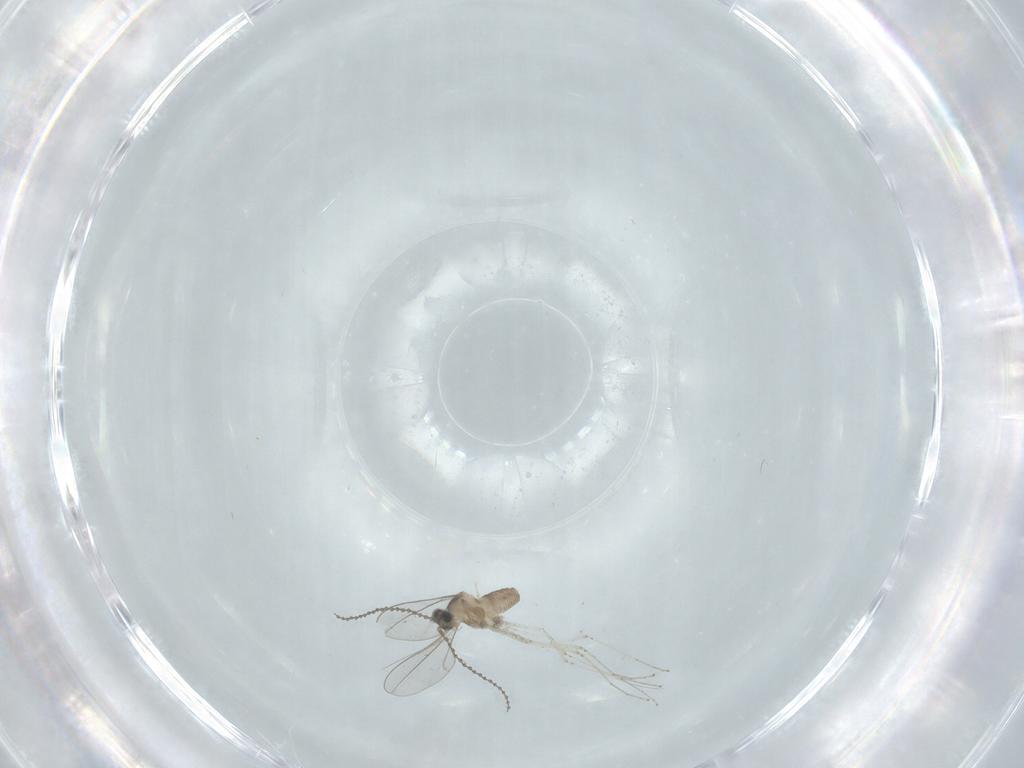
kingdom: Animalia
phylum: Arthropoda
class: Insecta
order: Diptera
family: Cecidomyiidae
